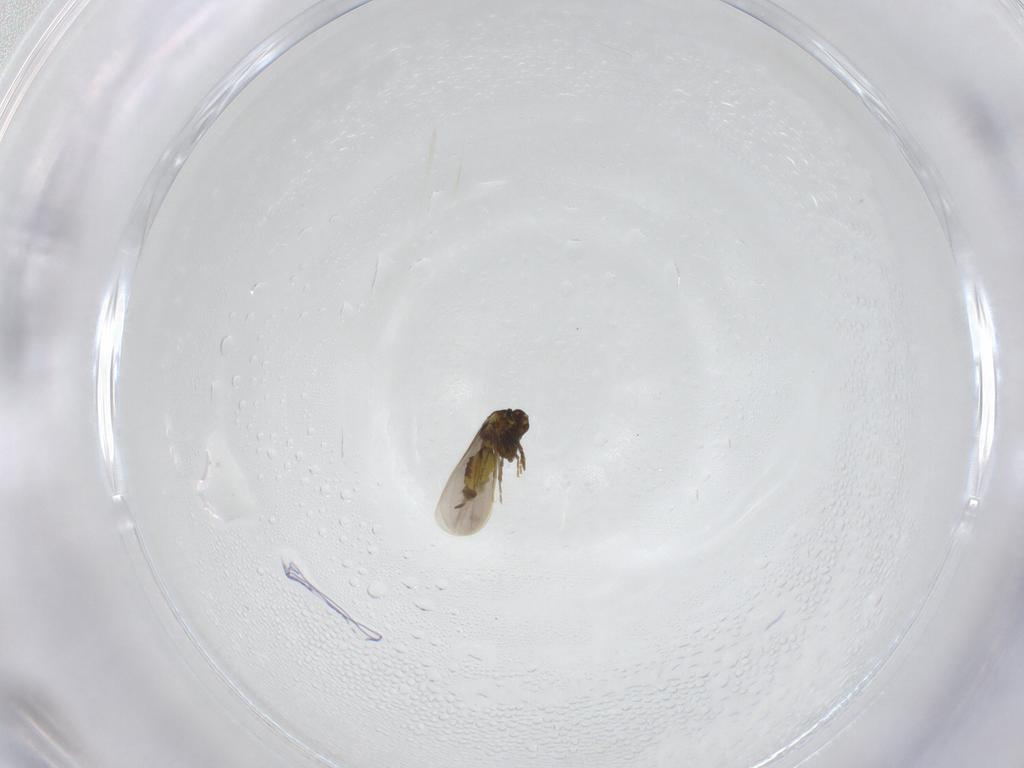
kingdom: Animalia
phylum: Arthropoda
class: Insecta
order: Hemiptera
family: Aleyrodidae
